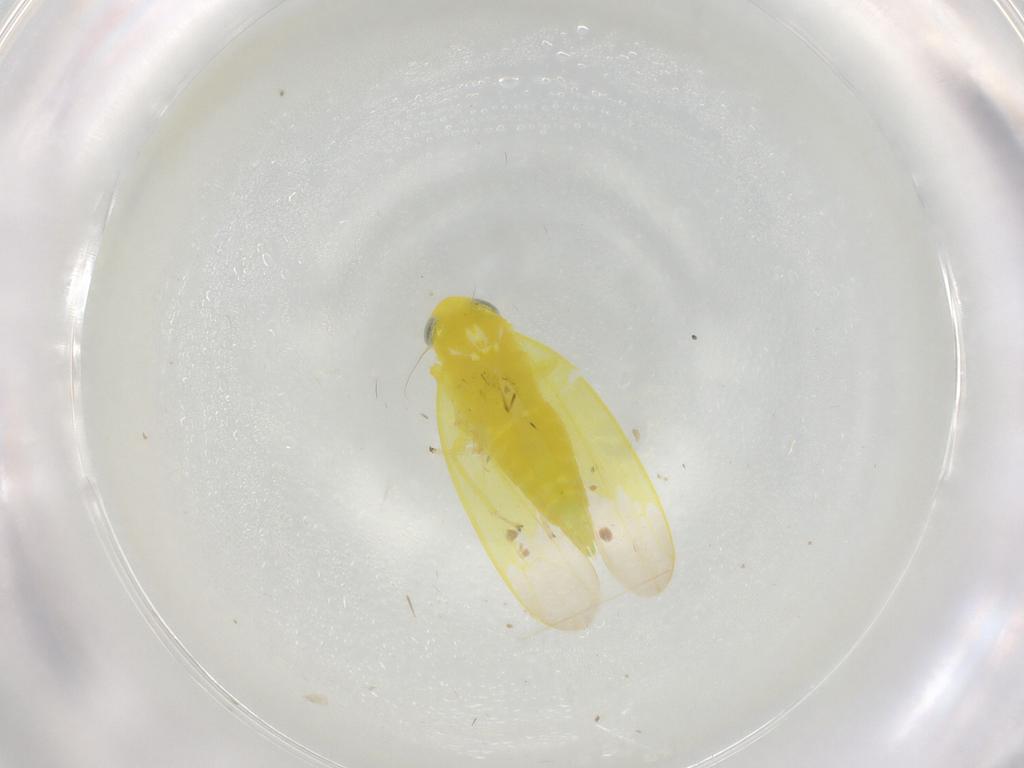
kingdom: Animalia
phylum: Arthropoda
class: Insecta
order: Hemiptera
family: Cicadellidae
